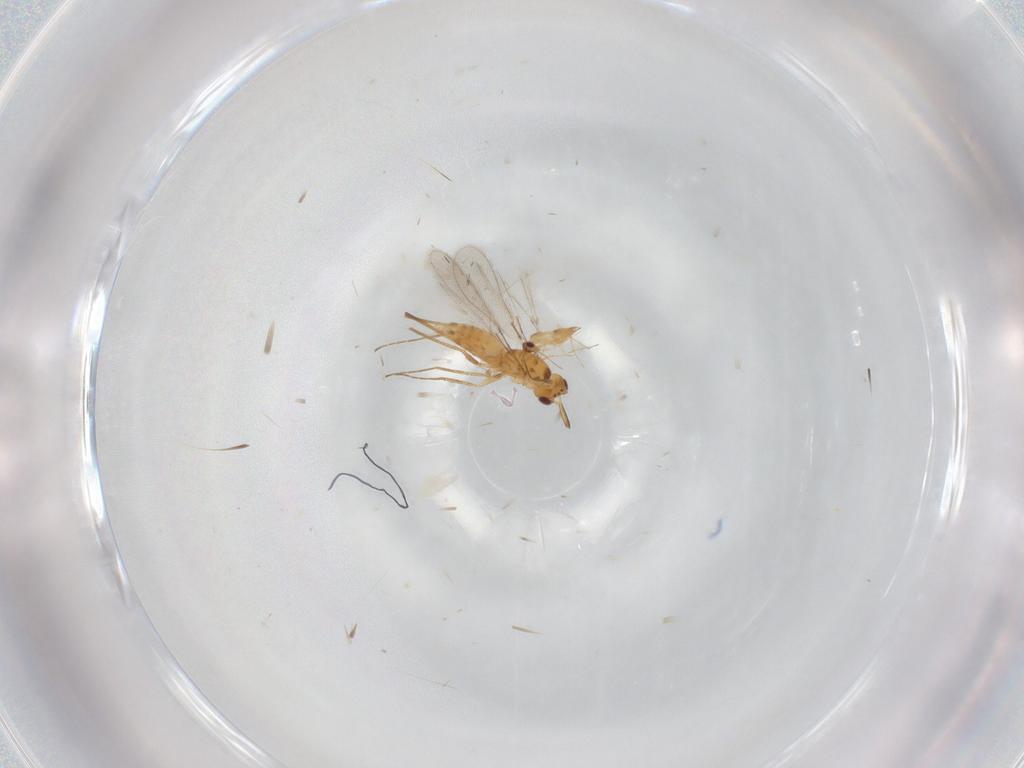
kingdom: Animalia
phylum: Arthropoda
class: Insecta
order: Hymenoptera
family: Mymaridae
